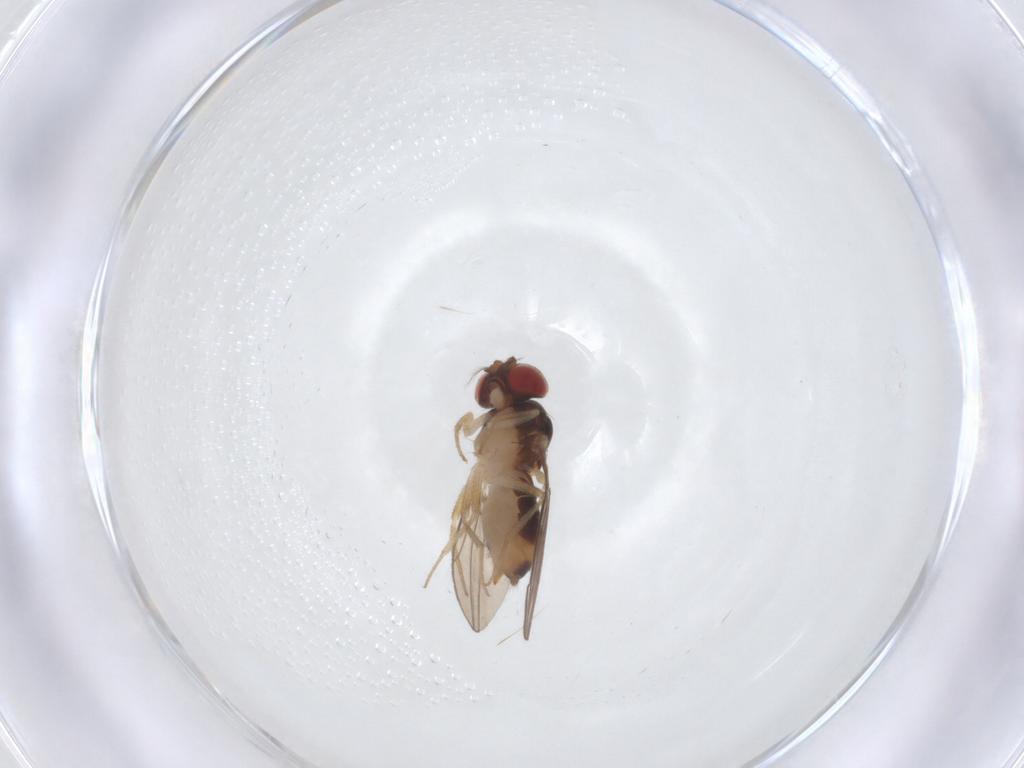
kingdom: Animalia
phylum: Arthropoda
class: Insecta
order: Diptera
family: Drosophilidae
